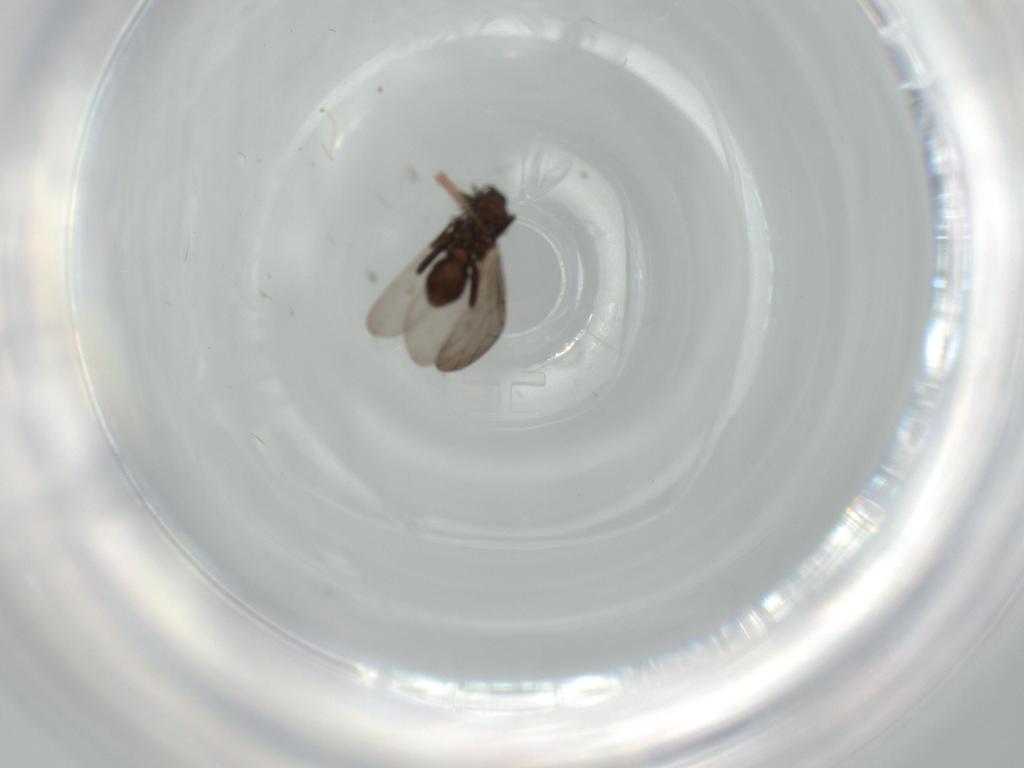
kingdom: Animalia
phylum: Arthropoda
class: Insecta
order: Diptera
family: Cecidomyiidae
